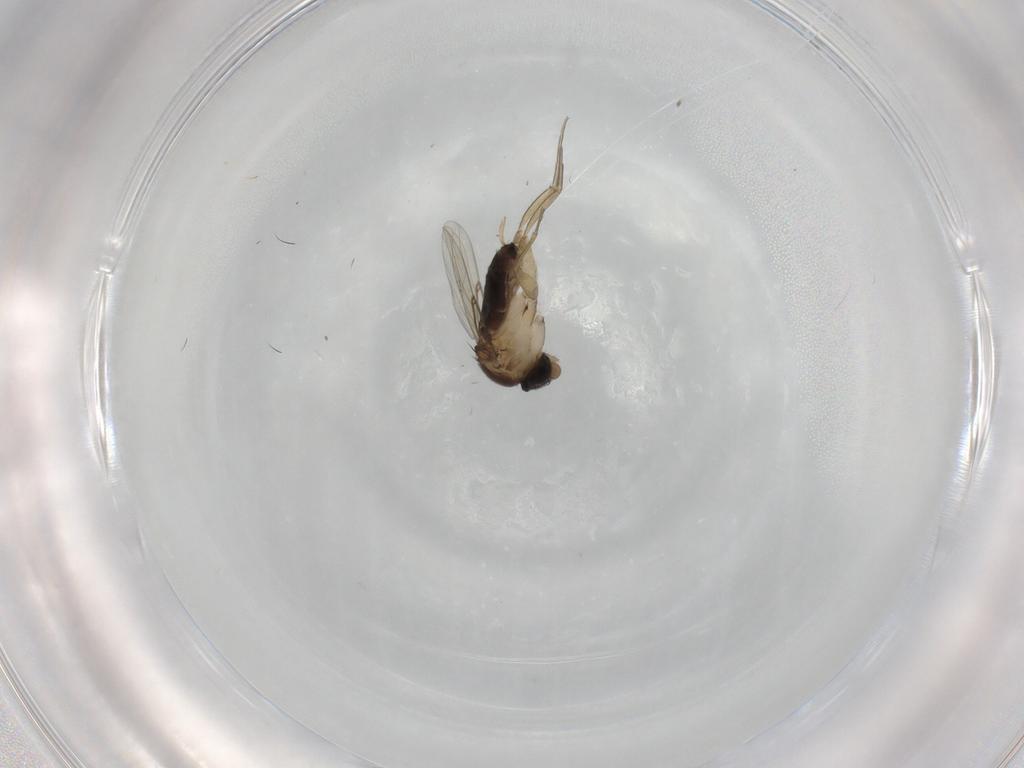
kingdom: Animalia
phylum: Arthropoda
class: Insecta
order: Diptera
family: Phoridae
